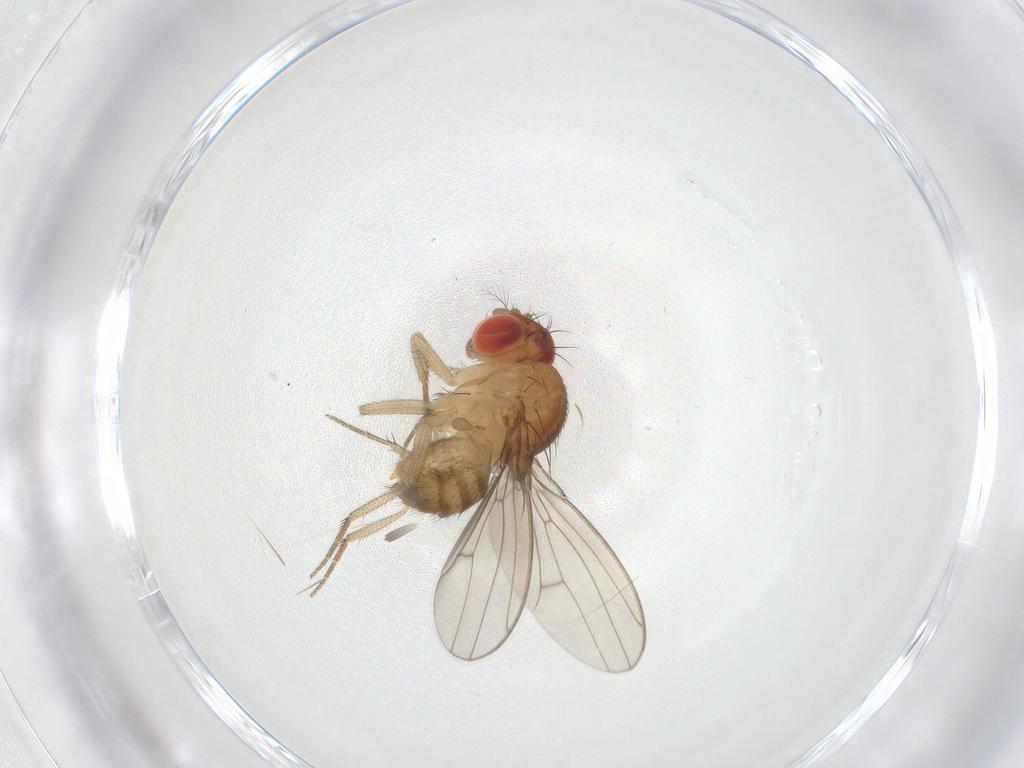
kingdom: Animalia
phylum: Arthropoda
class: Insecta
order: Diptera
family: Drosophilidae
